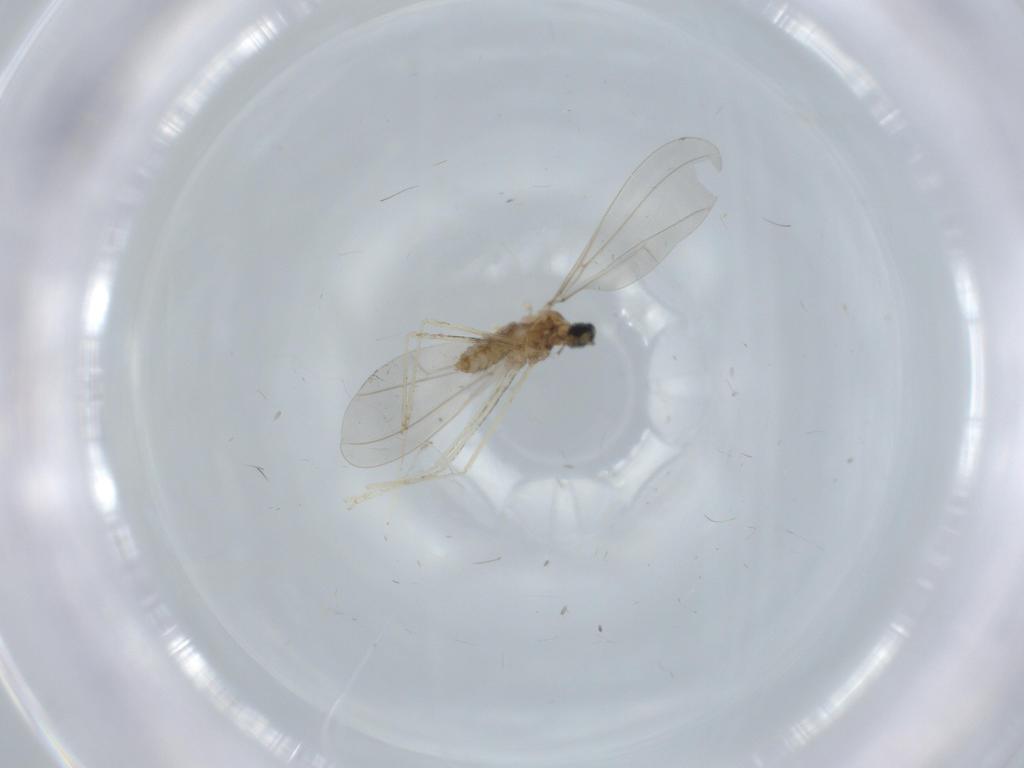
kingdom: Animalia
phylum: Arthropoda
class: Insecta
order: Diptera
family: Cecidomyiidae
